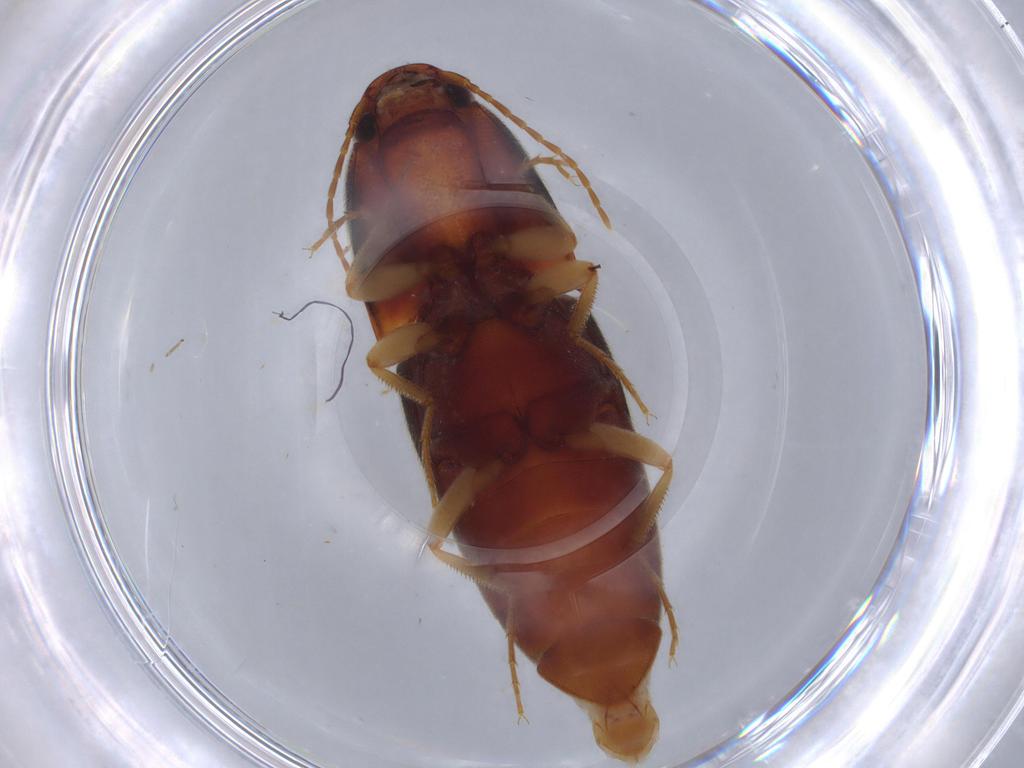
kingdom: Animalia
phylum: Arthropoda
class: Insecta
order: Coleoptera
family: Elateridae
